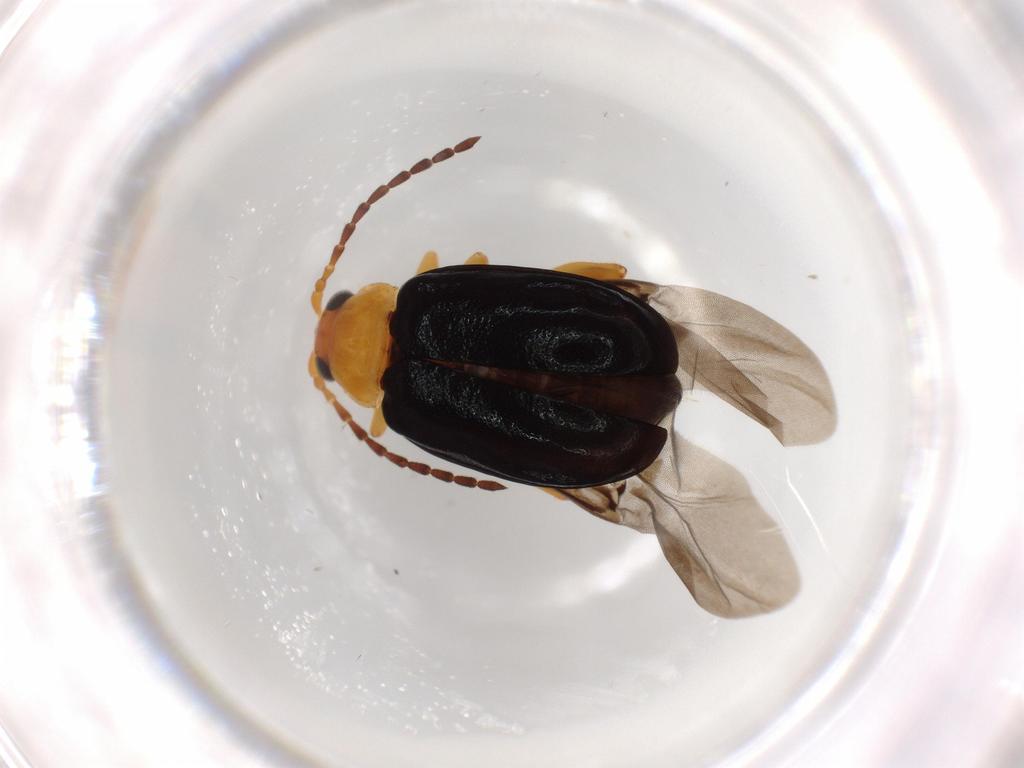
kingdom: Animalia
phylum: Arthropoda
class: Insecta
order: Coleoptera
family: Chrysomelidae
